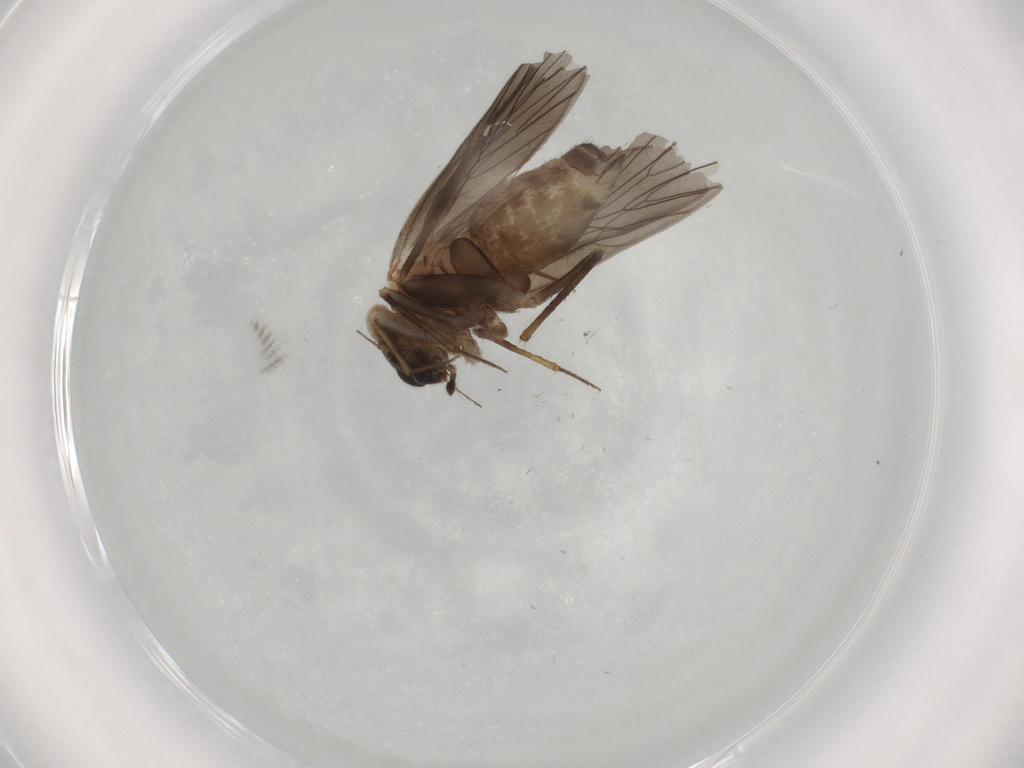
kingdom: Animalia
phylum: Arthropoda
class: Insecta
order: Psocodea
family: Lepidopsocidae
